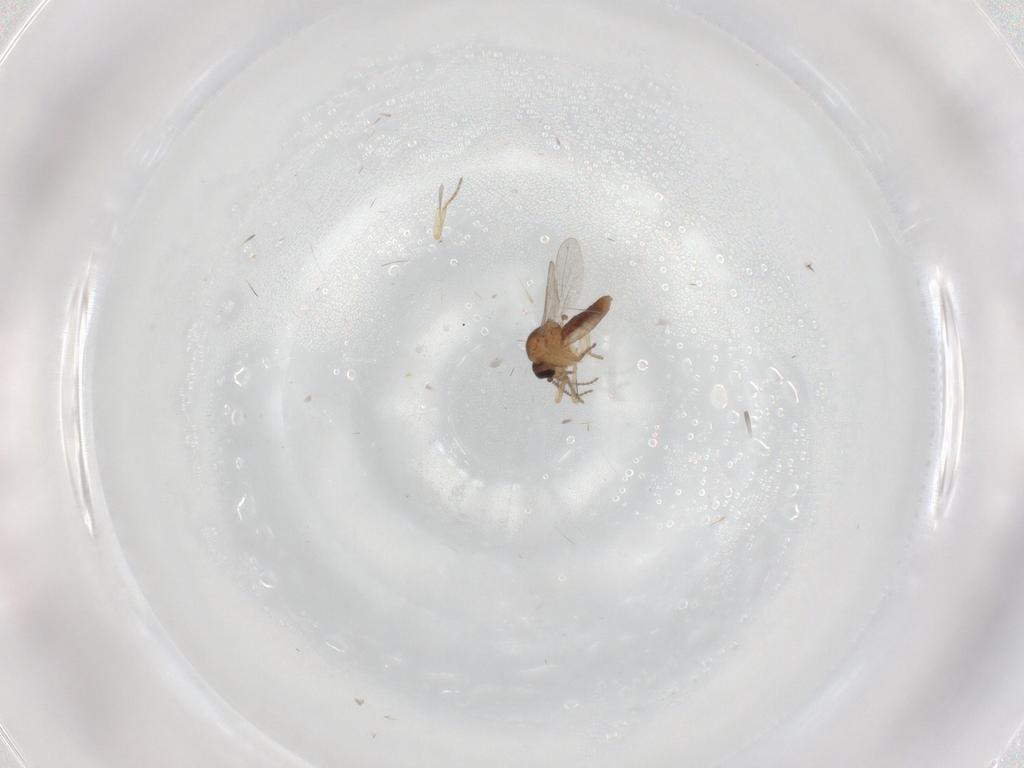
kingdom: Animalia
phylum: Arthropoda
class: Insecta
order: Diptera
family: Ceratopogonidae
